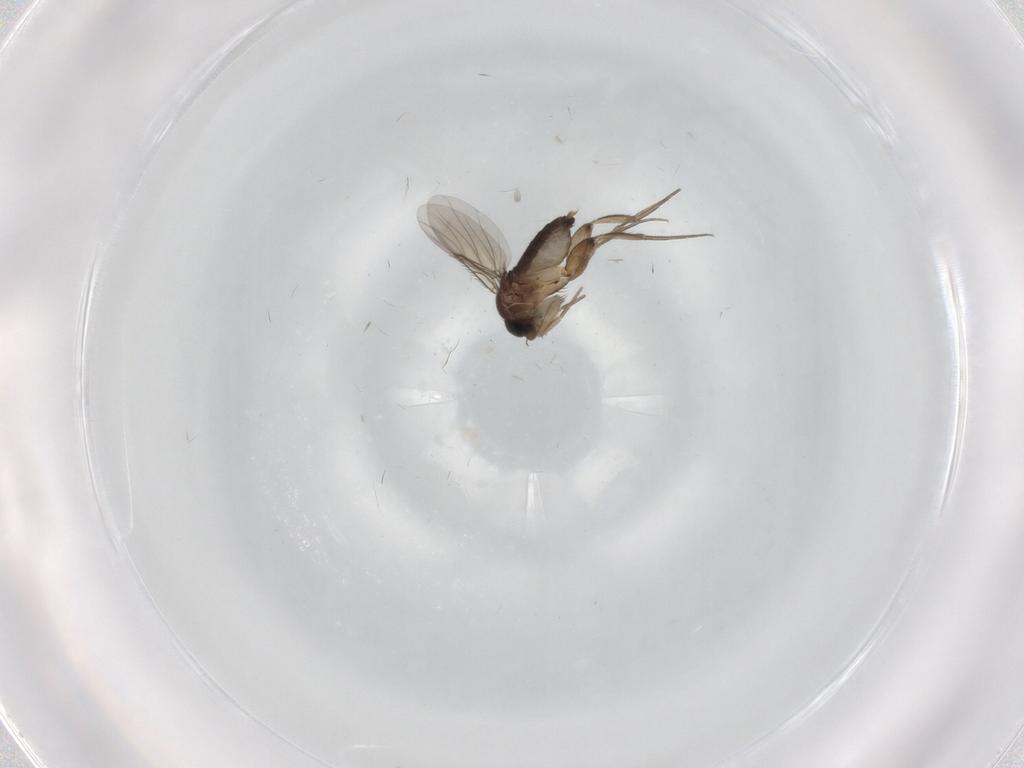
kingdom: Animalia
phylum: Arthropoda
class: Insecta
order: Diptera
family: Phoridae
